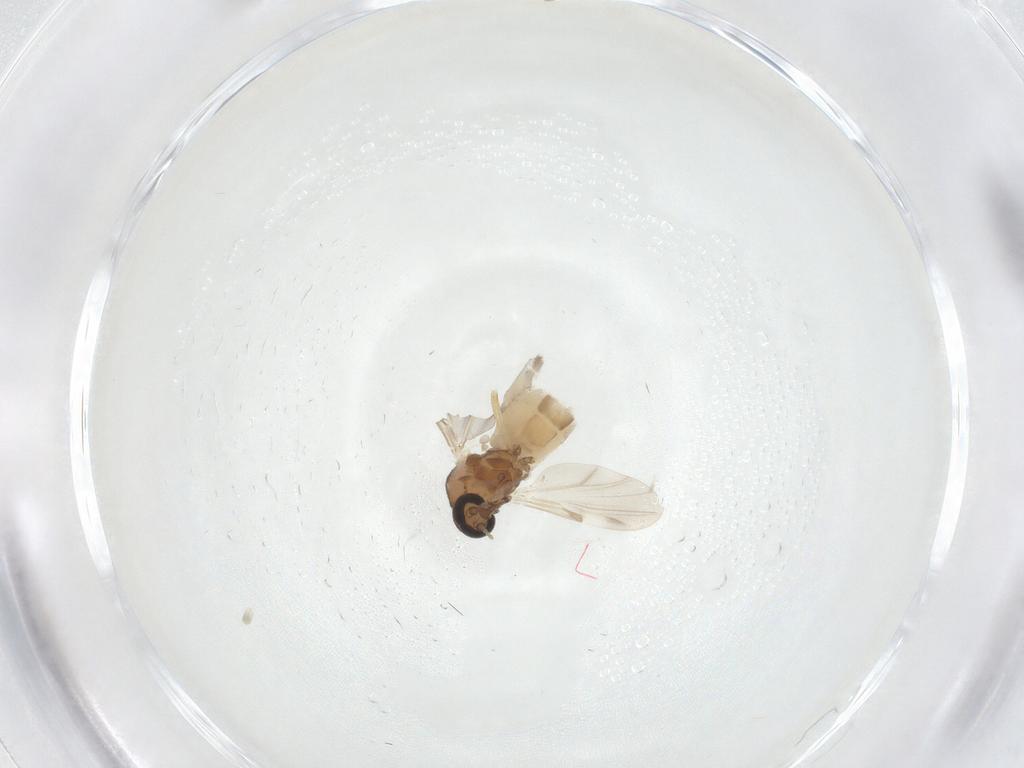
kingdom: Animalia
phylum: Arthropoda
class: Insecta
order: Diptera
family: Ceratopogonidae
